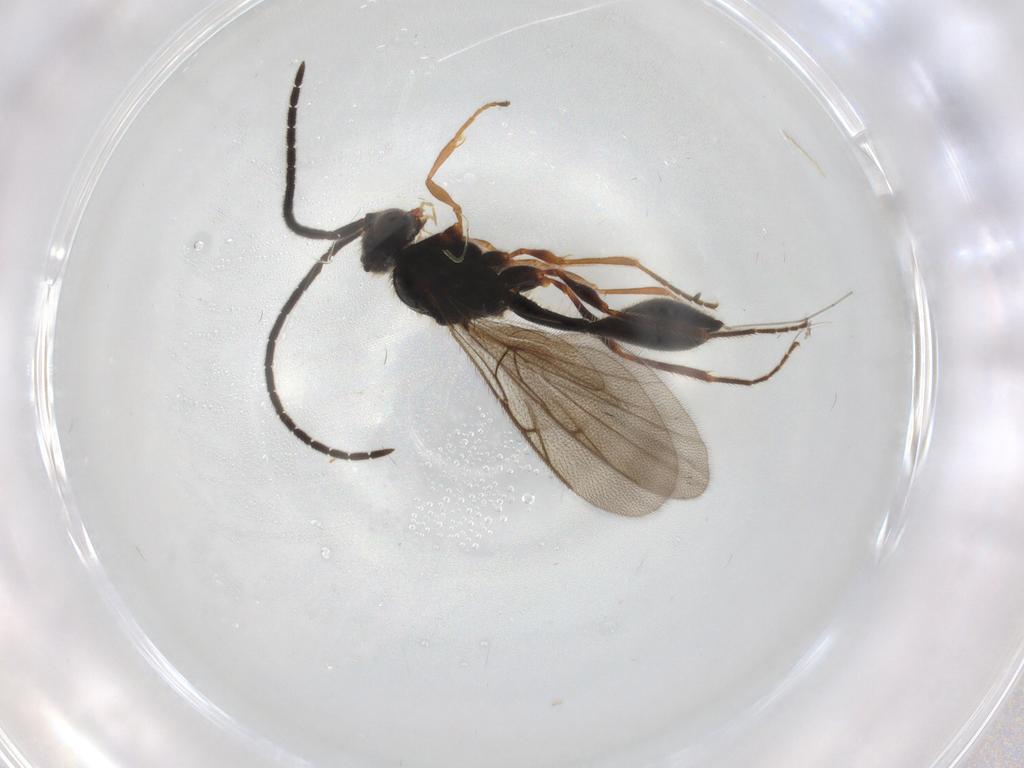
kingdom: Animalia
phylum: Arthropoda
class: Insecta
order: Hymenoptera
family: Diapriidae
